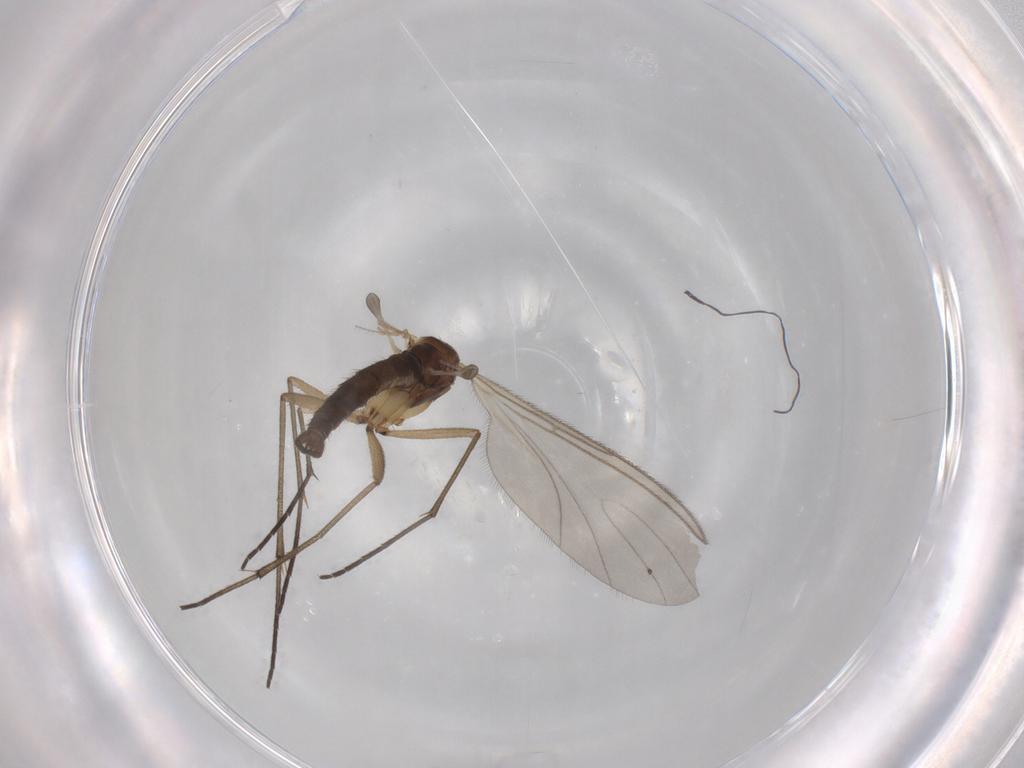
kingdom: Animalia
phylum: Arthropoda
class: Insecta
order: Diptera
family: Sciaridae
